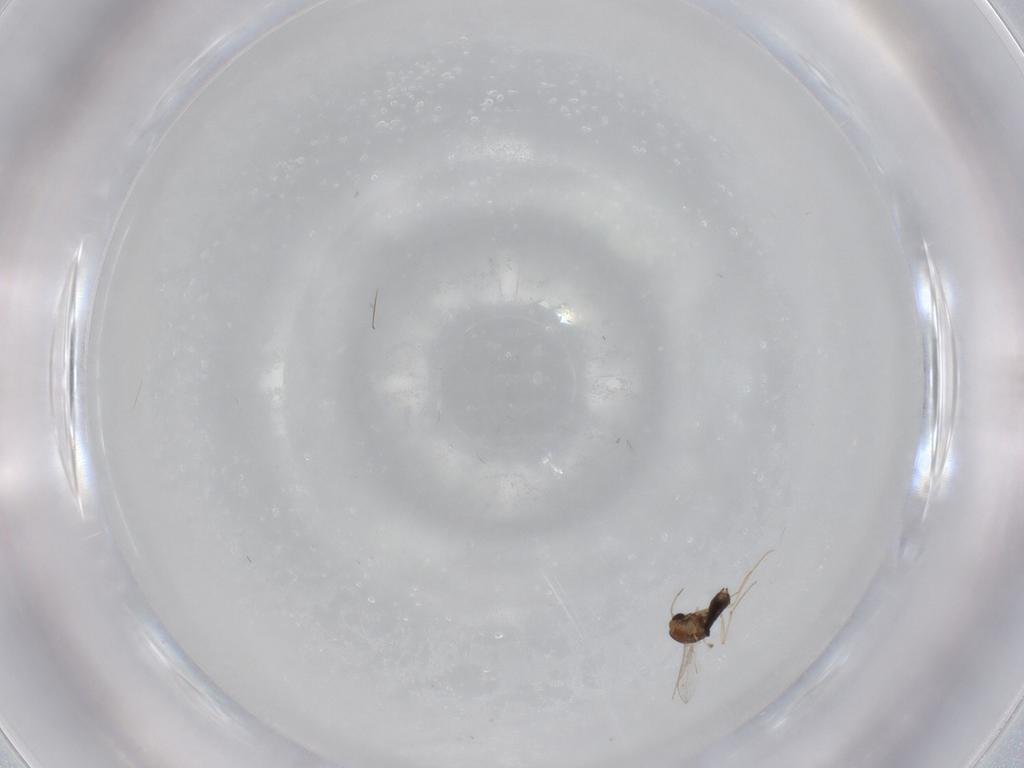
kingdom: Animalia
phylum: Arthropoda
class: Insecta
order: Diptera
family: Chironomidae
